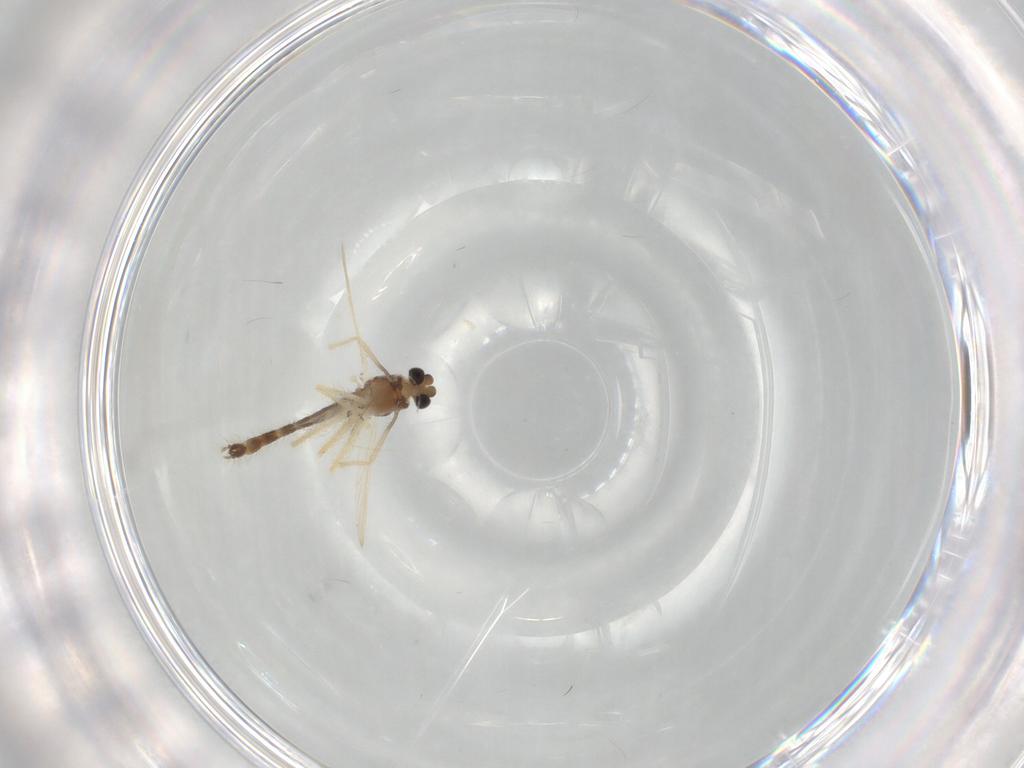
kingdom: Animalia
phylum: Arthropoda
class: Insecta
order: Diptera
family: Chironomidae
